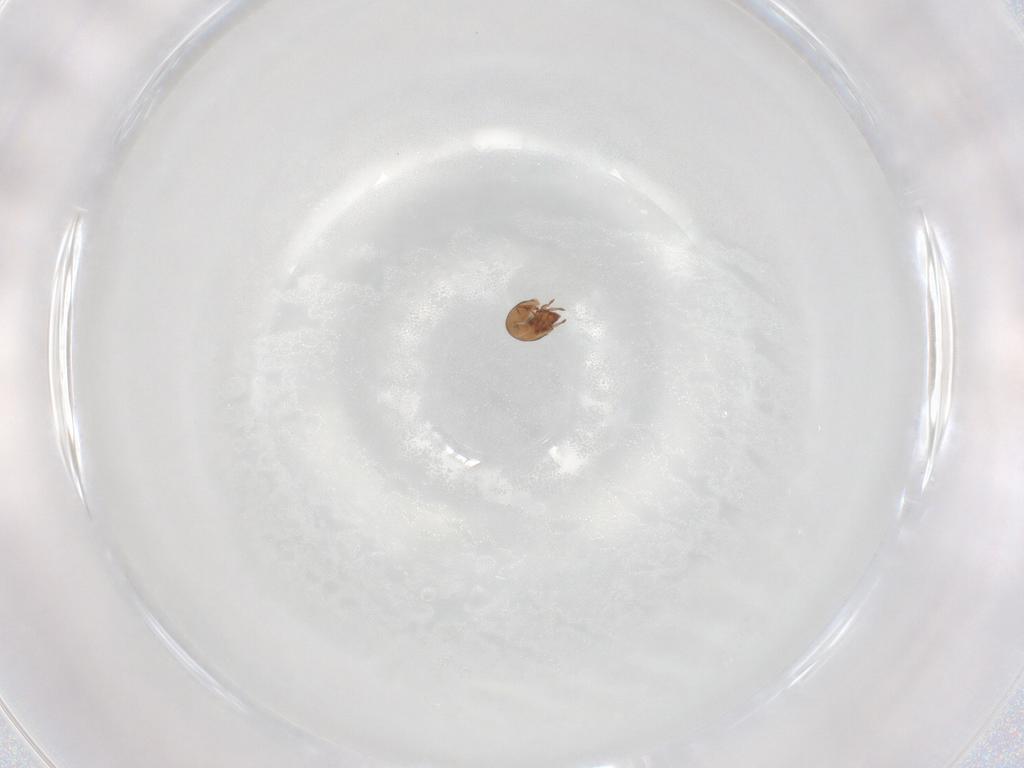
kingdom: Animalia
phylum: Arthropoda
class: Arachnida
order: Sarcoptiformes
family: Scheloribatidae
